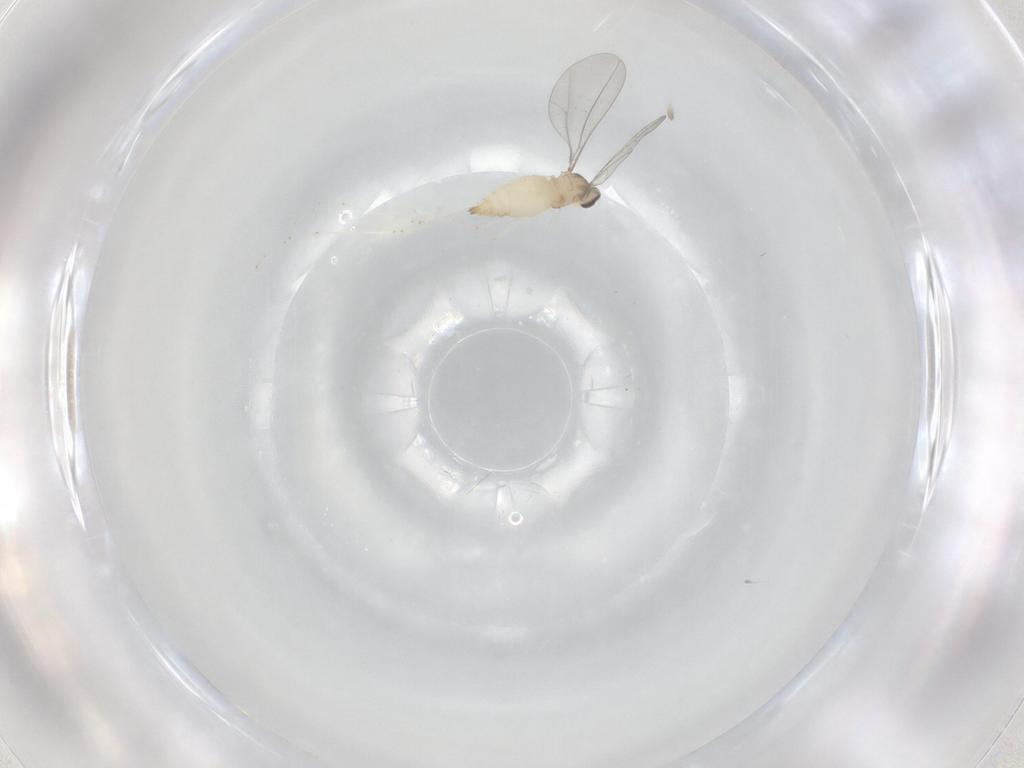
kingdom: Animalia
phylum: Arthropoda
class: Insecta
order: Diptera
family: Cecidomyiidae
